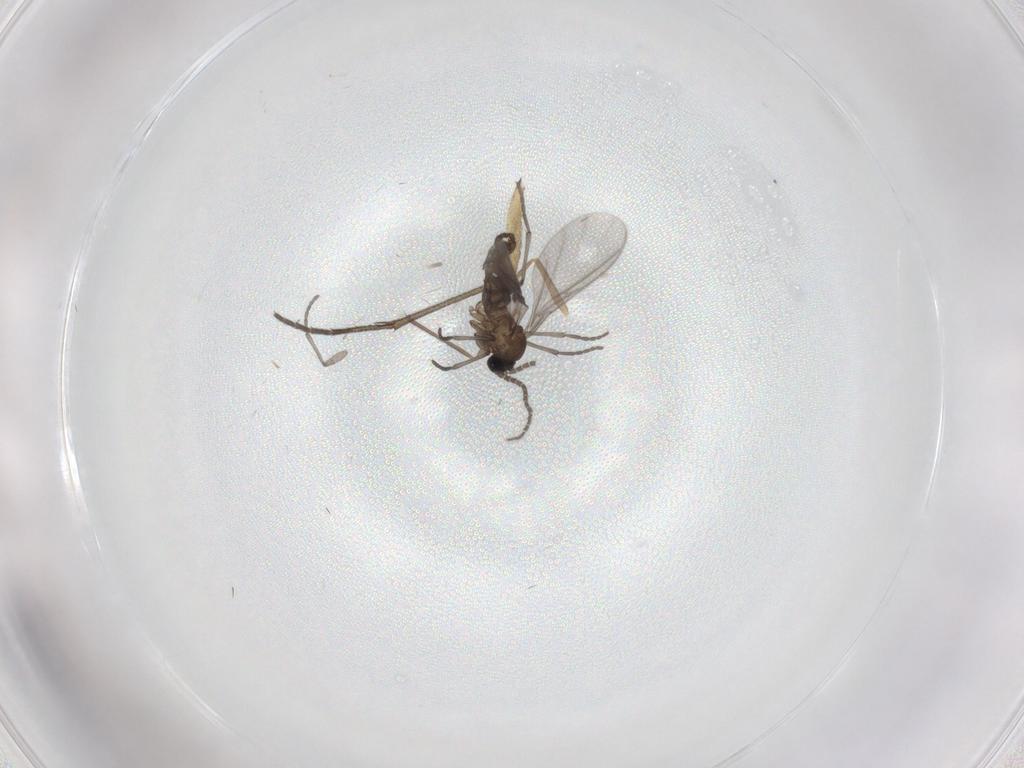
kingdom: Animalia
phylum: Arthropoda
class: Insecta
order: Diptera
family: Sciaridae
